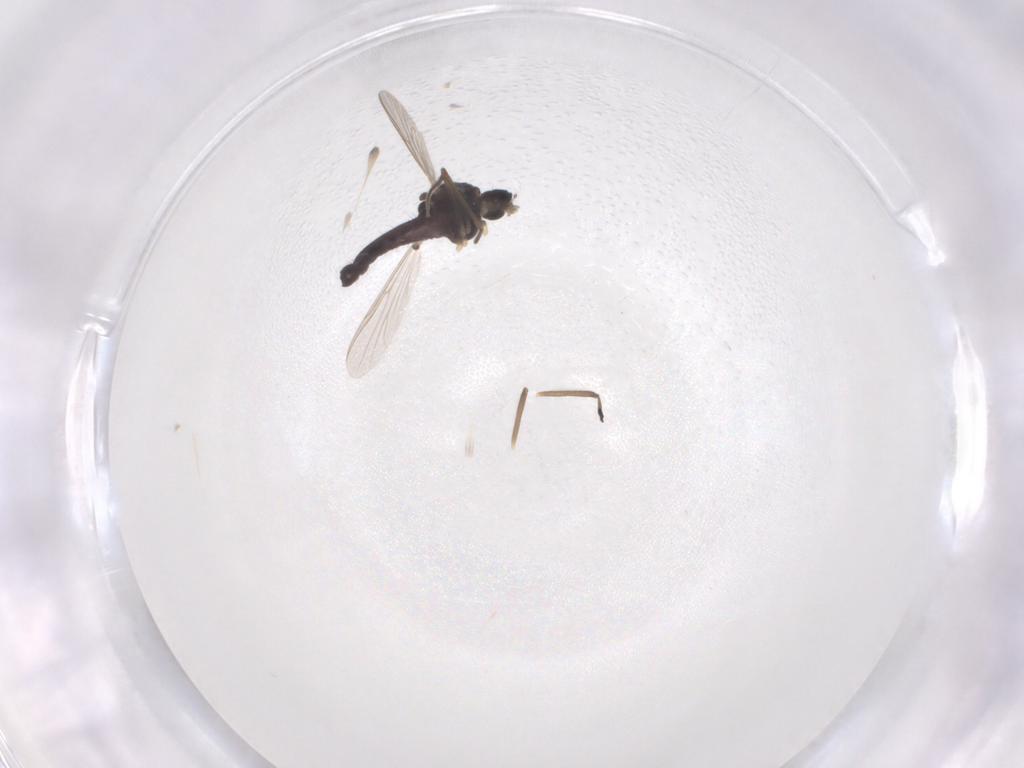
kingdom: Animalia
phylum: Arthropoda
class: Insecta
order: Diptera
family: Chironomidae
